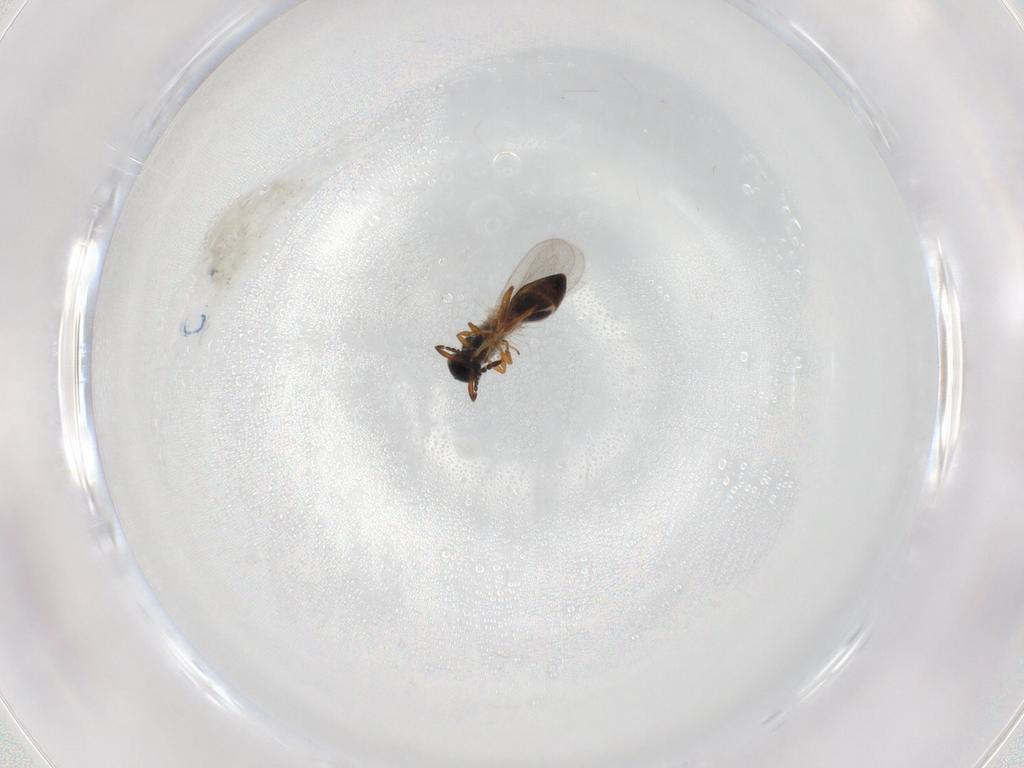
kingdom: Animalia
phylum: Arthropoda
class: Insecta
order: Hymenoptera
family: Platygastridae
